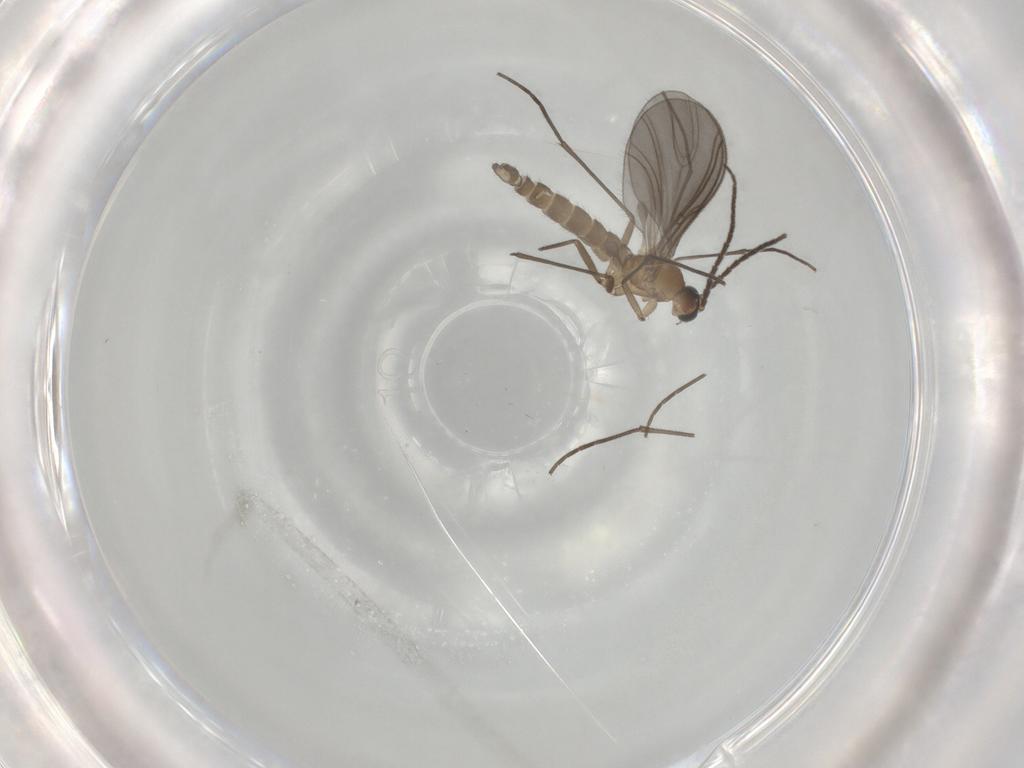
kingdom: Animalia
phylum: Arthropoda
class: Insecta
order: Diptera
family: Sciaridae
